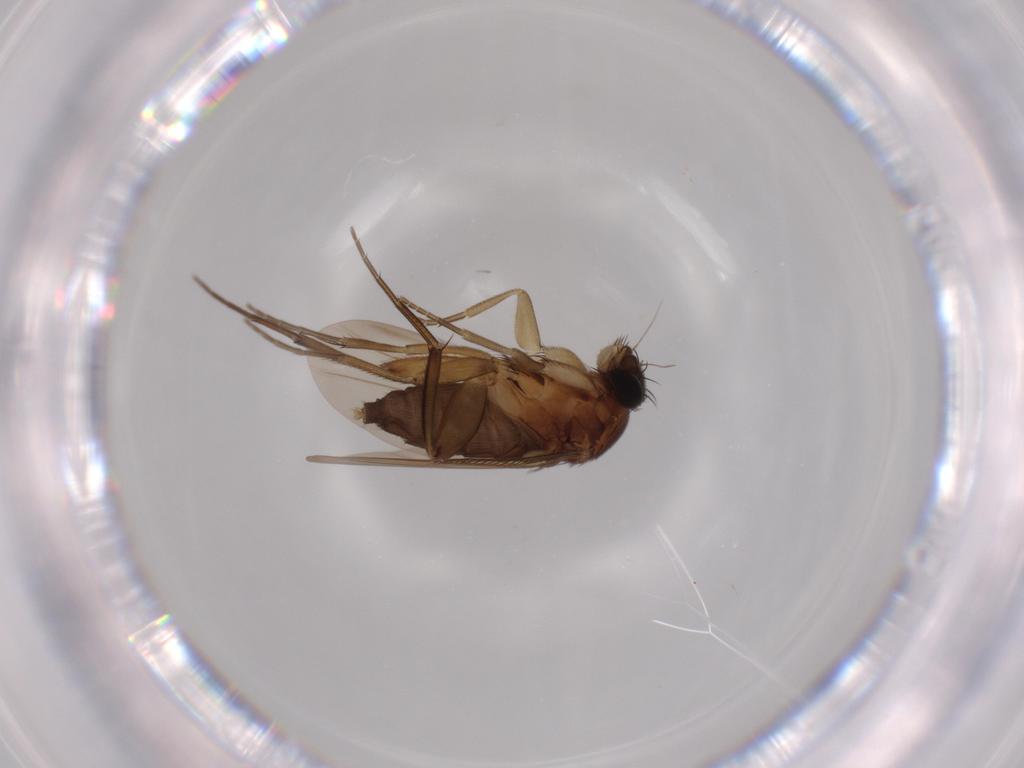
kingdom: Animalia
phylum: Arthropoda
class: Insecta
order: Diptera
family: Phoridae
